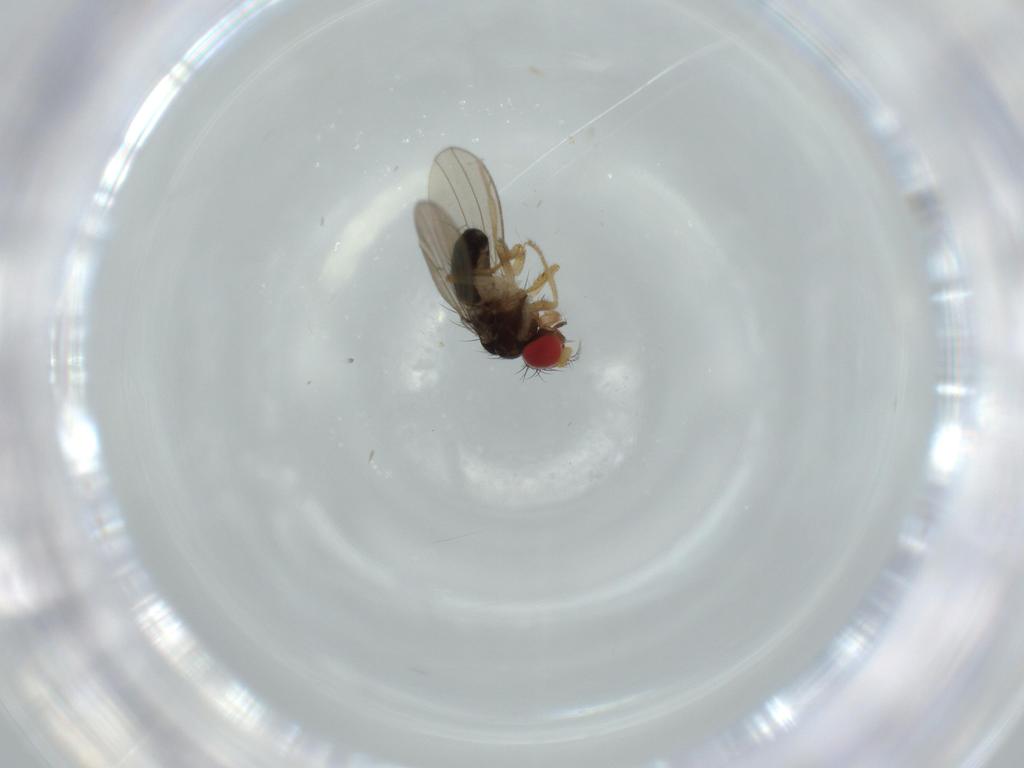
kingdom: Animalia
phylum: Arthropoda
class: Insecta
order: Diptera
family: Drosophilidae
